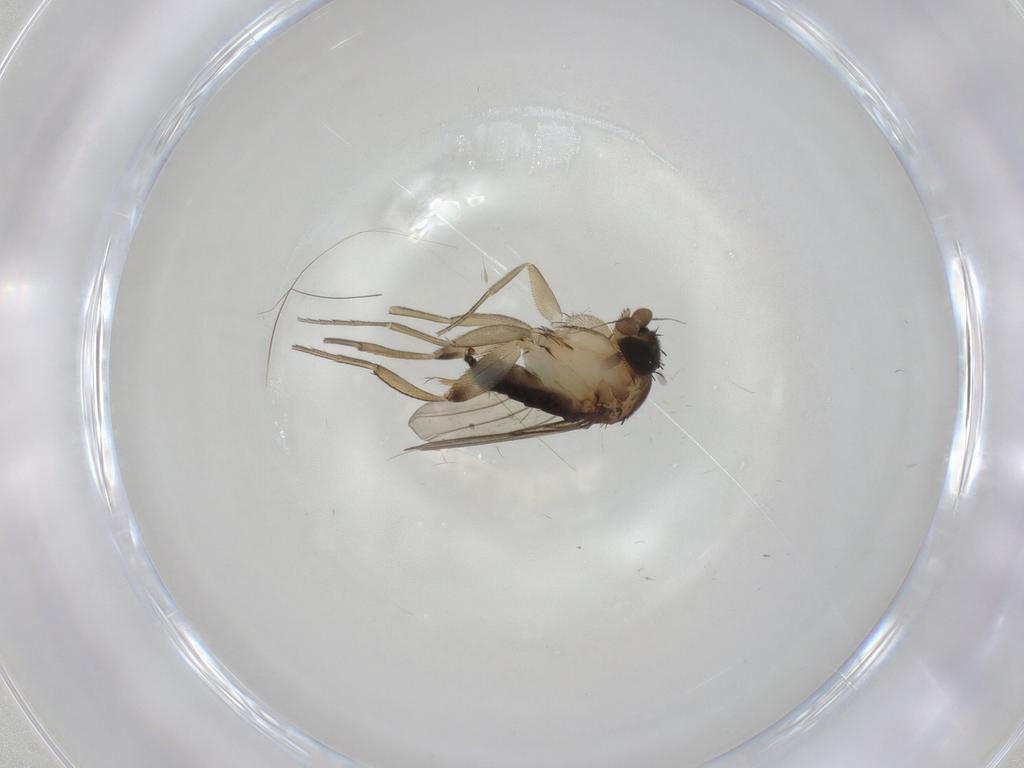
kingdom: Animalia
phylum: Arthropoda
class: Insecta
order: Diptera
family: Phoridae
